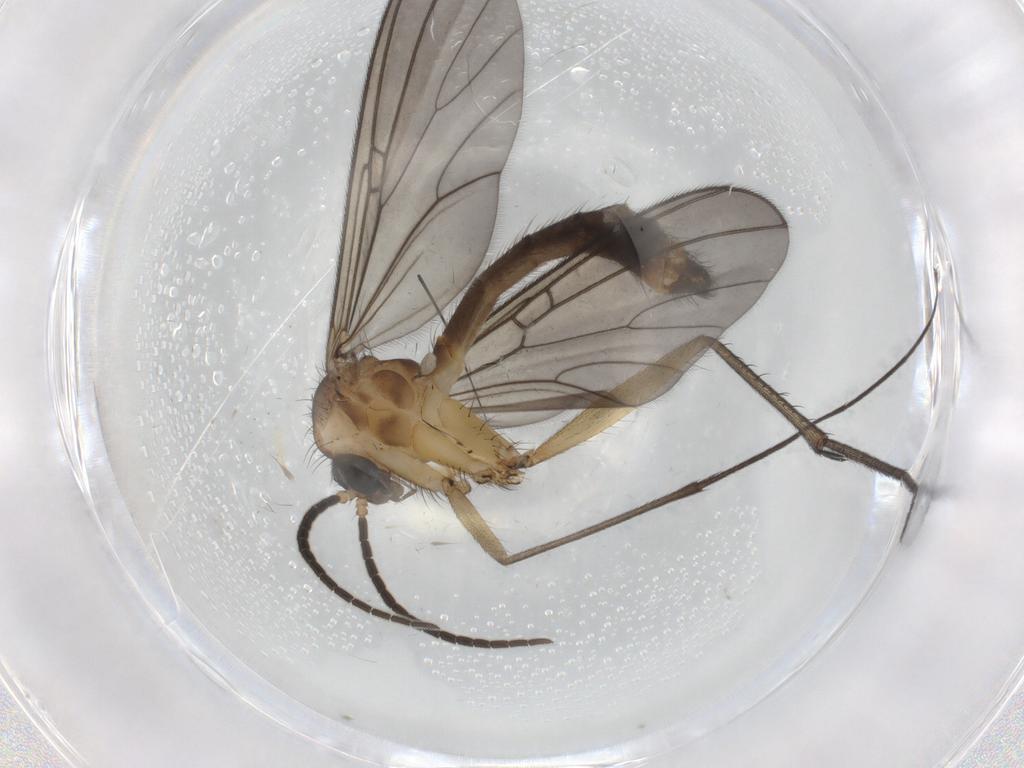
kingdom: Animalia
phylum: Arthropoda
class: Insecta
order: Diptera
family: Mycetophilidae
